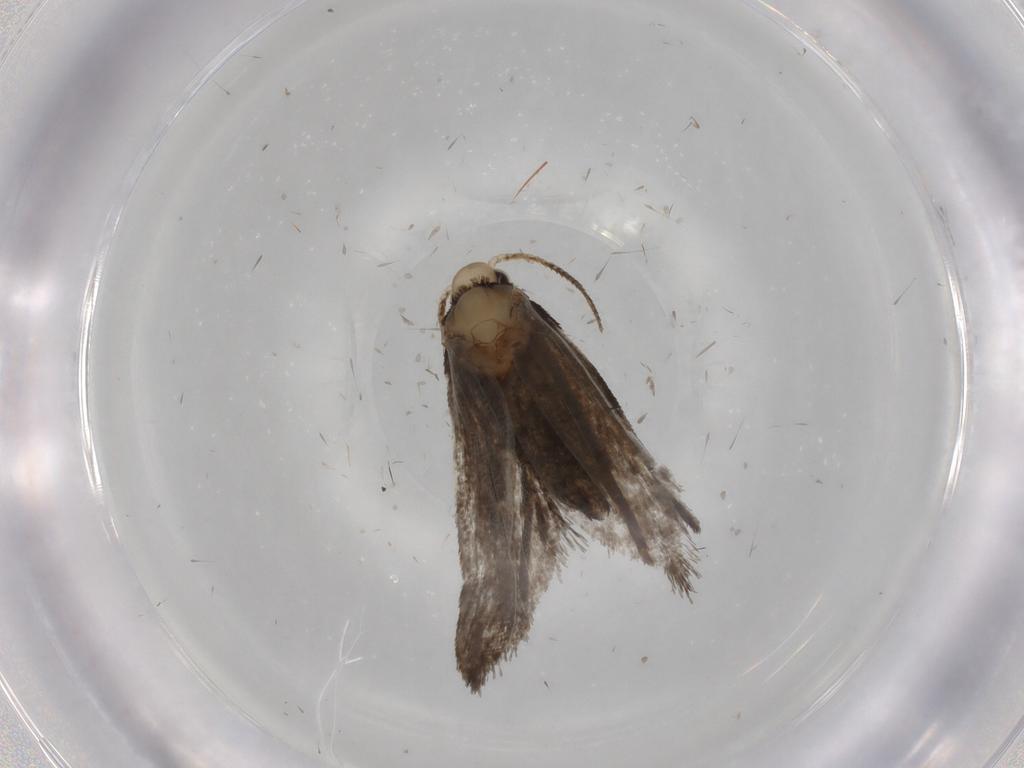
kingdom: Animalia
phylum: Arthropoda
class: Insecta
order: Lepidoptera
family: Psychidae
